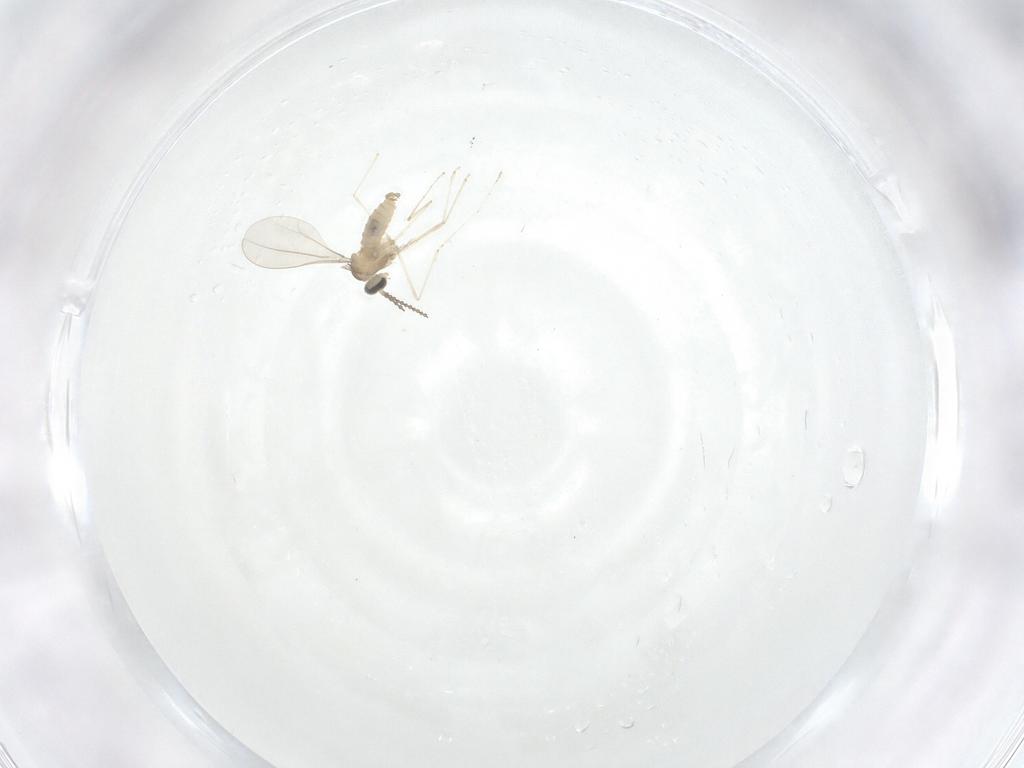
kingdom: Animalia
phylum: Arthropoda
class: Insecta
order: Diptera
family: Cecidomyiidae
